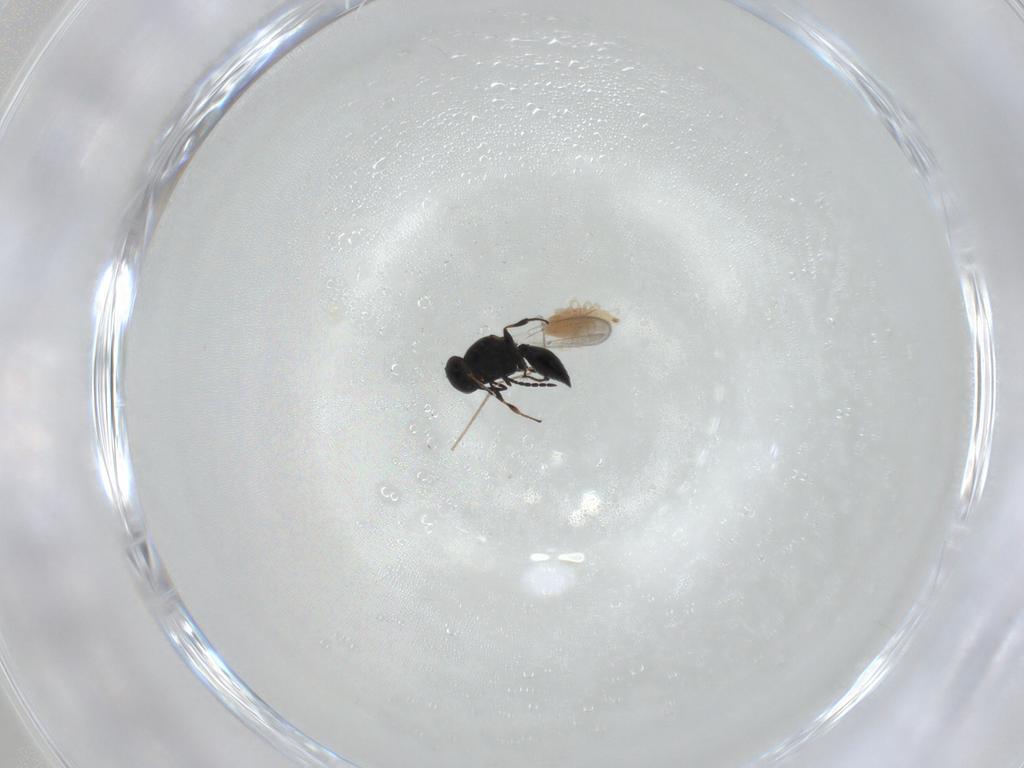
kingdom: Animalia
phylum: Arthropoda
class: Arachnida
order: Trombidiformes
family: Bdellidae
